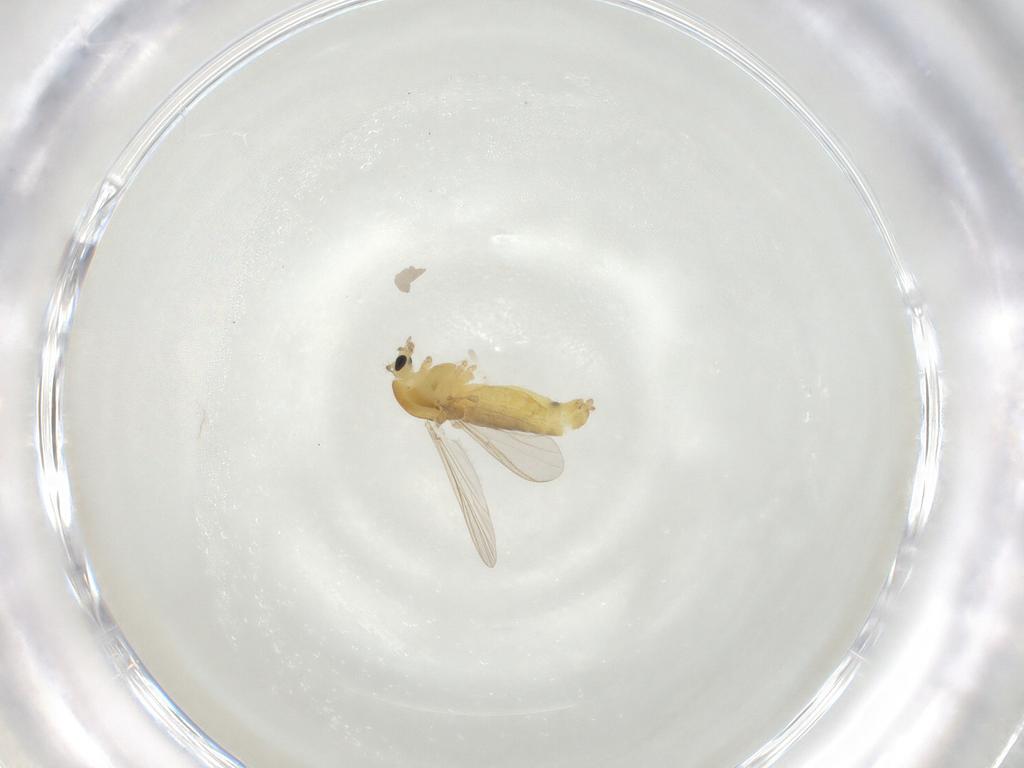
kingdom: Animalia
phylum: Arthropoda
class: Insecta
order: Diptera
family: Chironomidae
